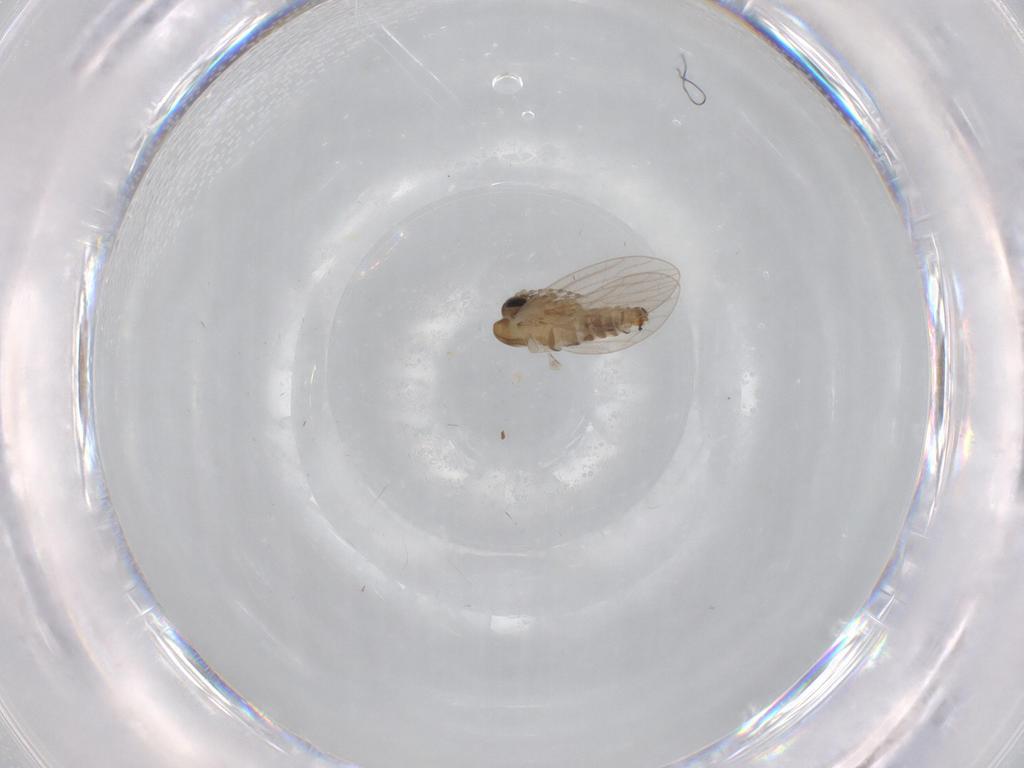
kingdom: Animalia
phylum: Arthropoda
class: Insecta
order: Diptera
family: Psychodidae
